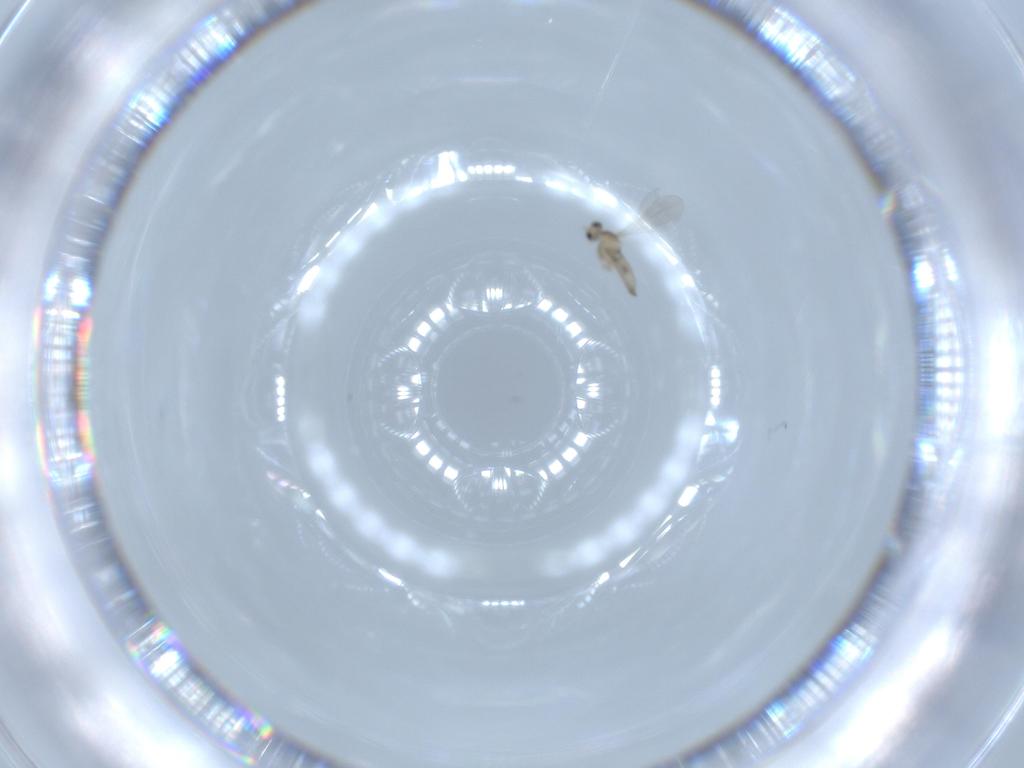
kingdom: Animalia
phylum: Arthropoda
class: Insecta
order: Diptera
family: Cecidomyiidae
